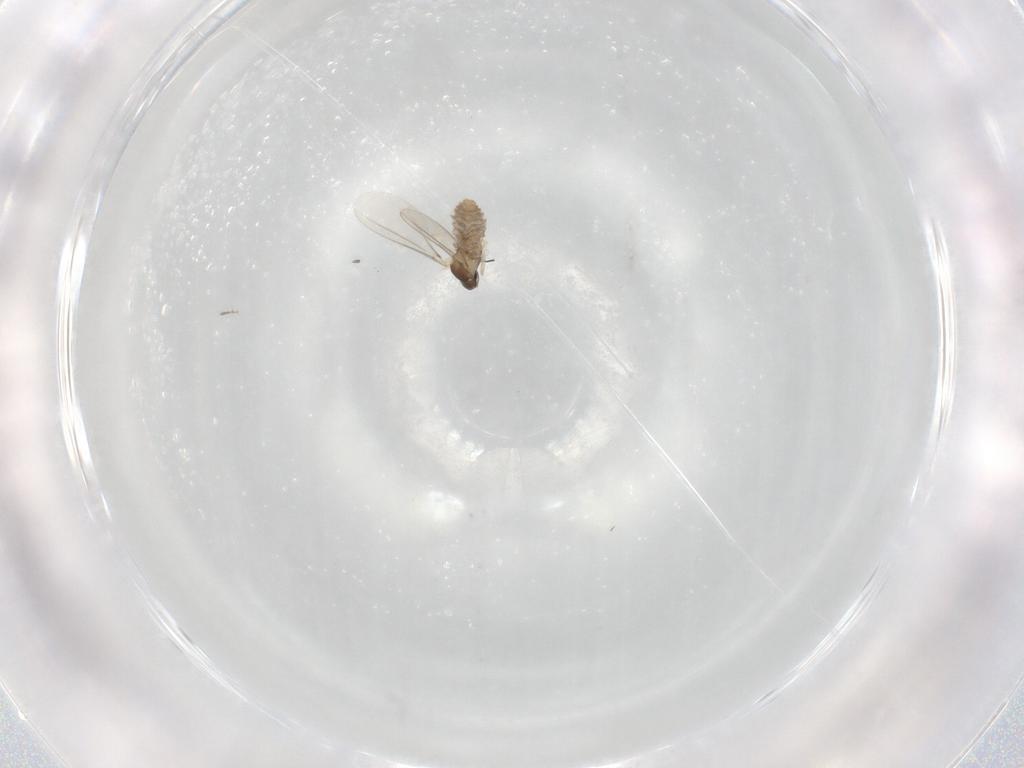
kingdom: Animalia
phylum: Arthropoda
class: Insecta
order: Diptera
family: Cecidomyiidae
